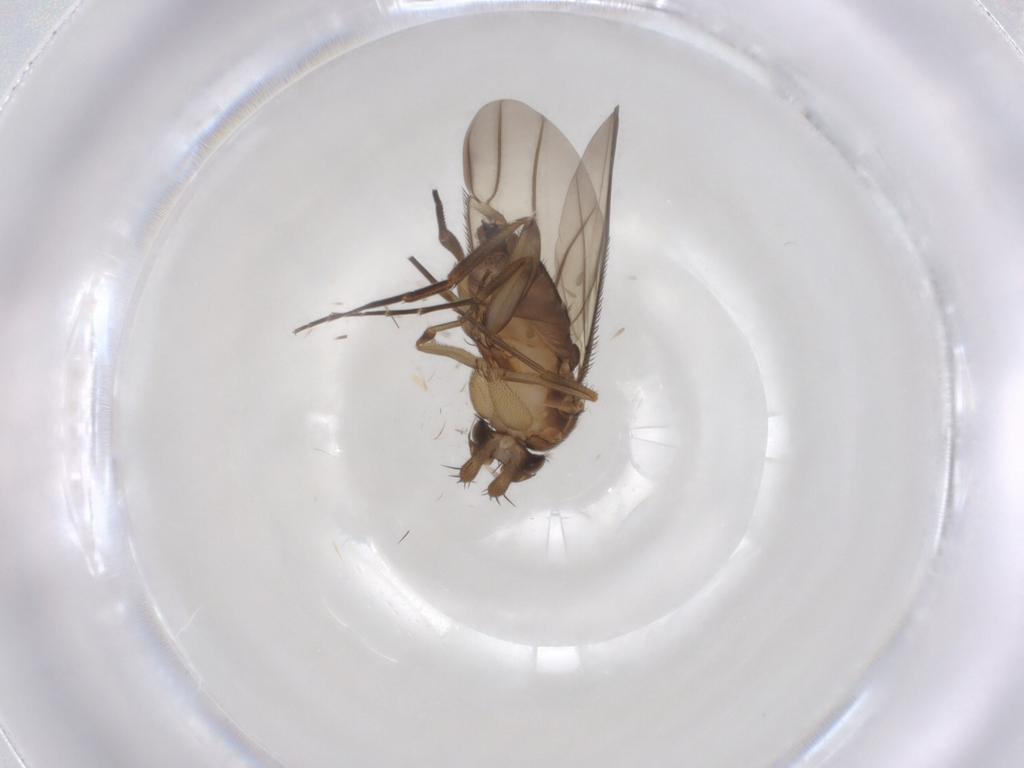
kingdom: Animalia
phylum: Arthropoda
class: Insecta
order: Diptera
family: Phoridae
